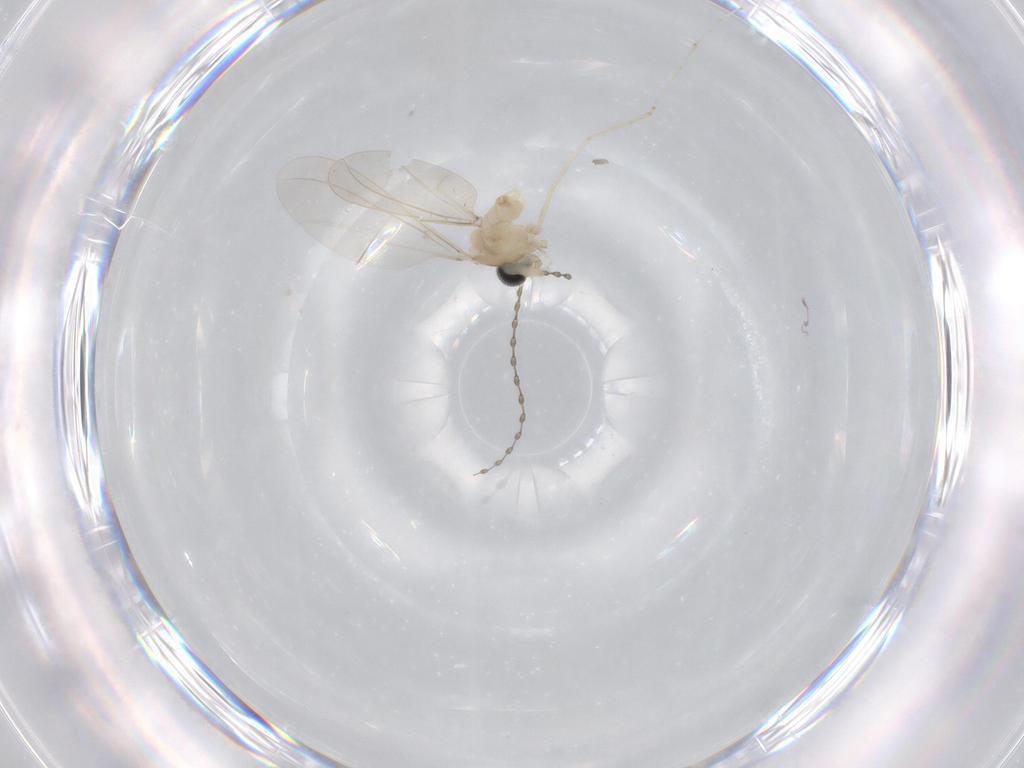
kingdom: Animalia
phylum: Arthropoda
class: Insecta
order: Diptera
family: Cecidomyiidae
